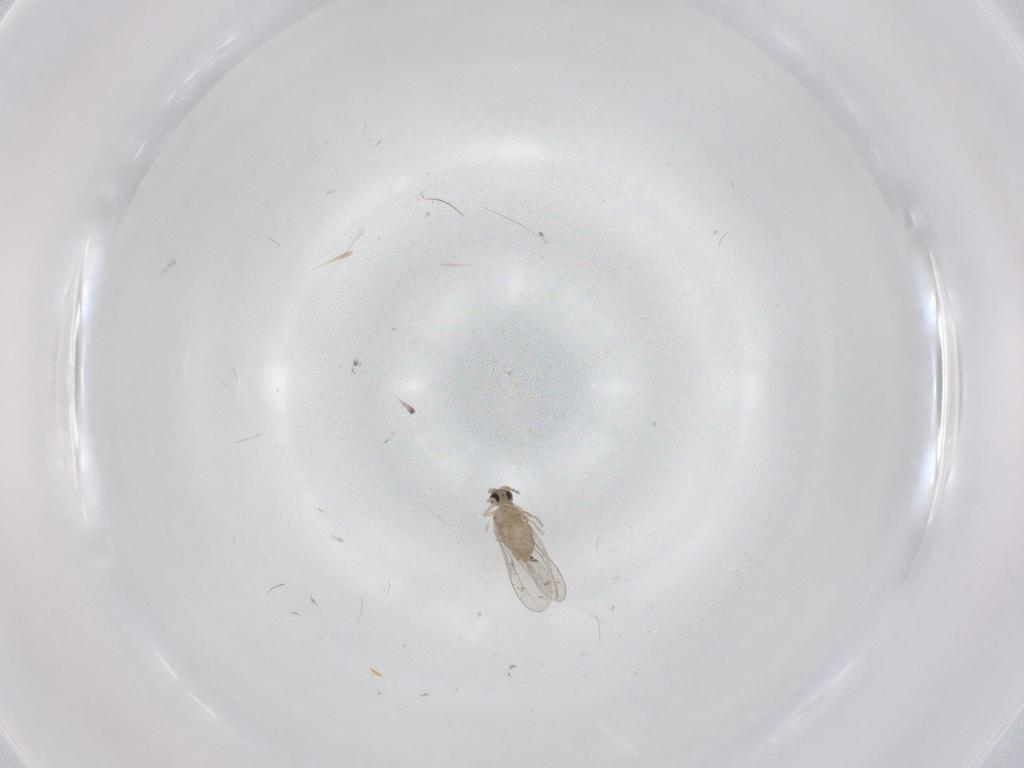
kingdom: Animalia
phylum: Arthropoda
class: Insecta
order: Diptera
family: Cecidomyiidae
